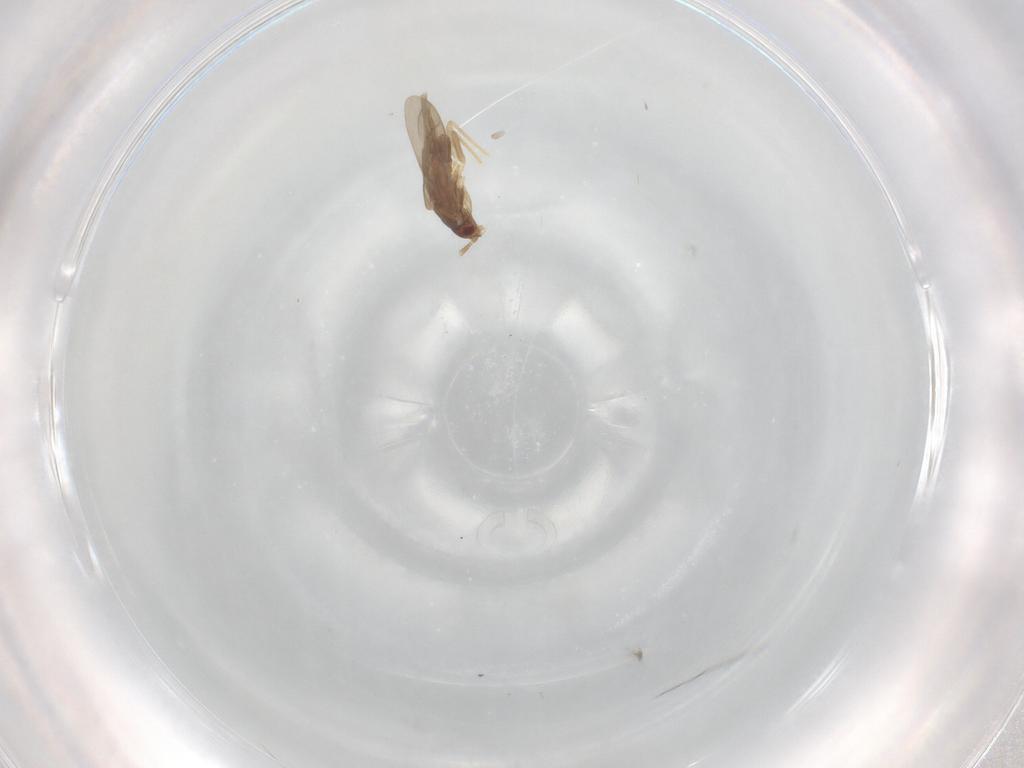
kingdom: Animalia
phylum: Arthropoda
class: Insecta
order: Hemiptera
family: Ceratocombidae
